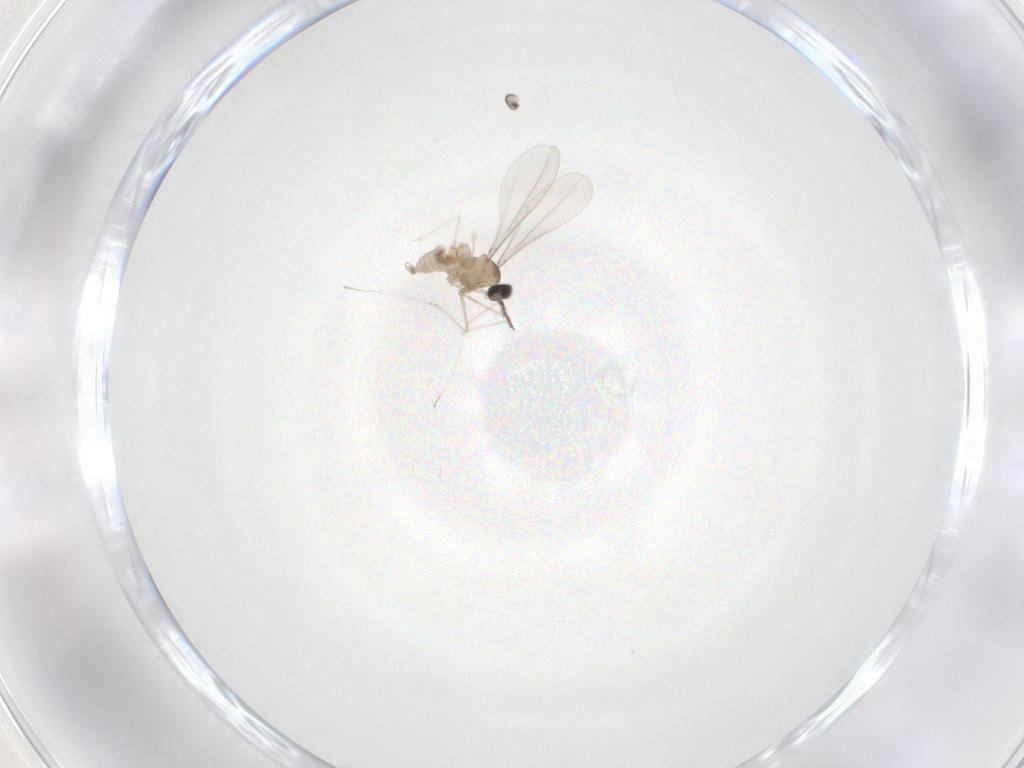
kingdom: Animalia
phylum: Arthropoda
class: Insecta
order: Diptera
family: Cecidomyiidae
